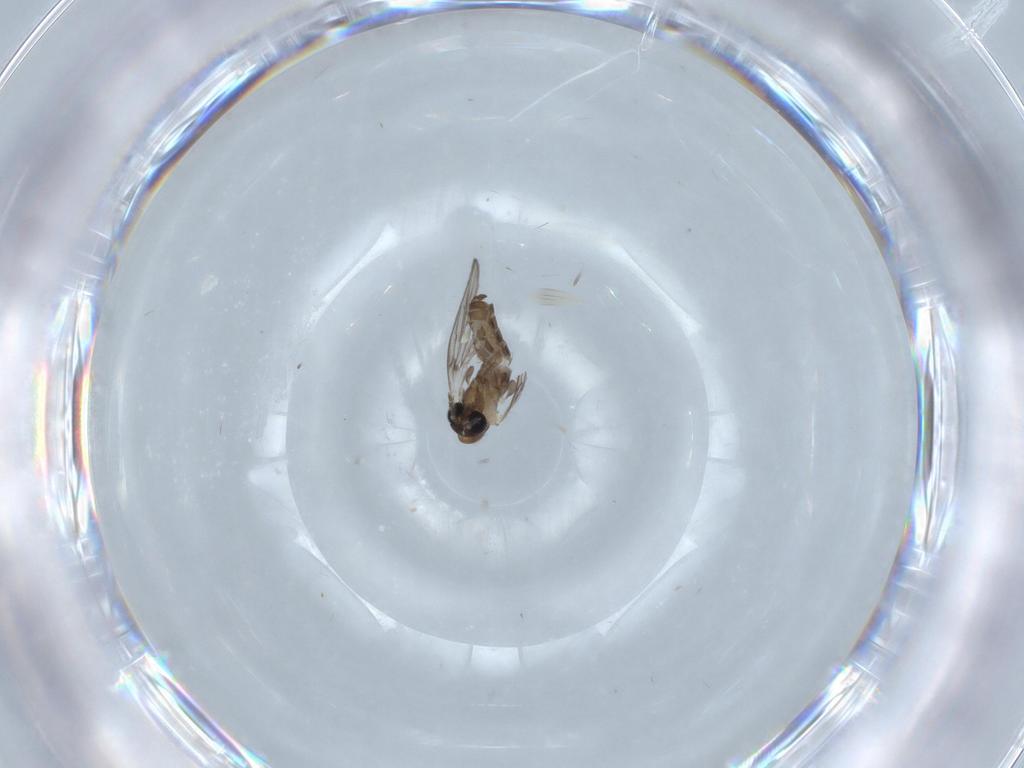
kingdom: Animalia
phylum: Arthropoda
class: Insecta
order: Diptera
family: Psychodidae
